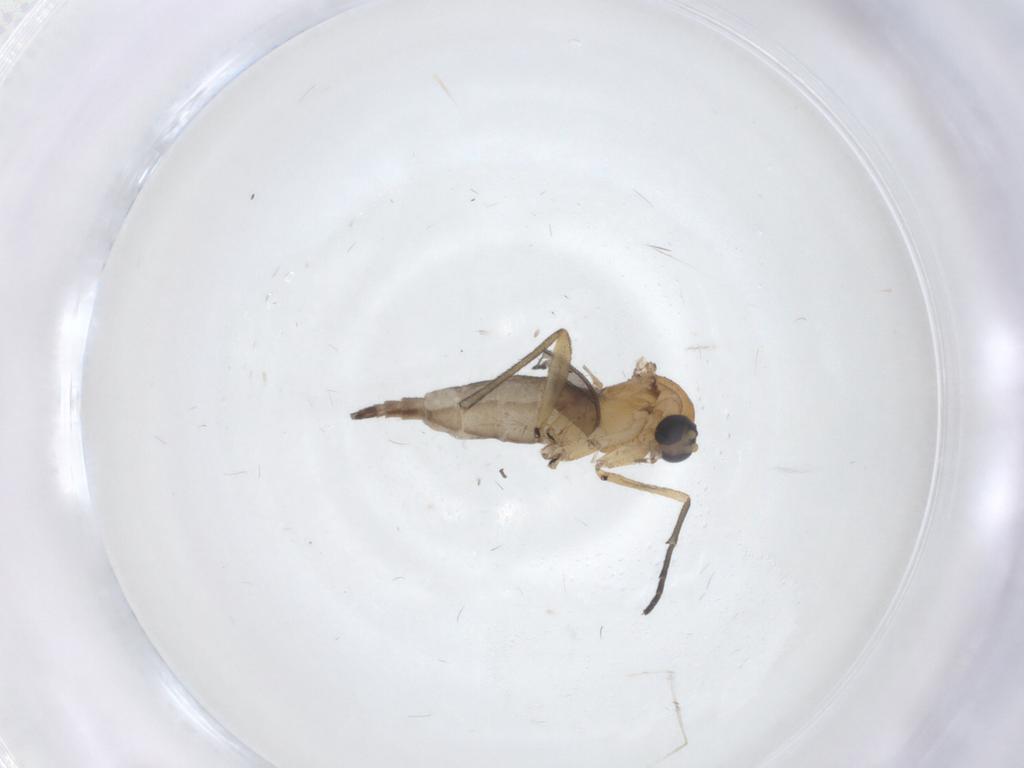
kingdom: Animalia
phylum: Arthropoda
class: Insecta
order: Diptera
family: Sciaridae
